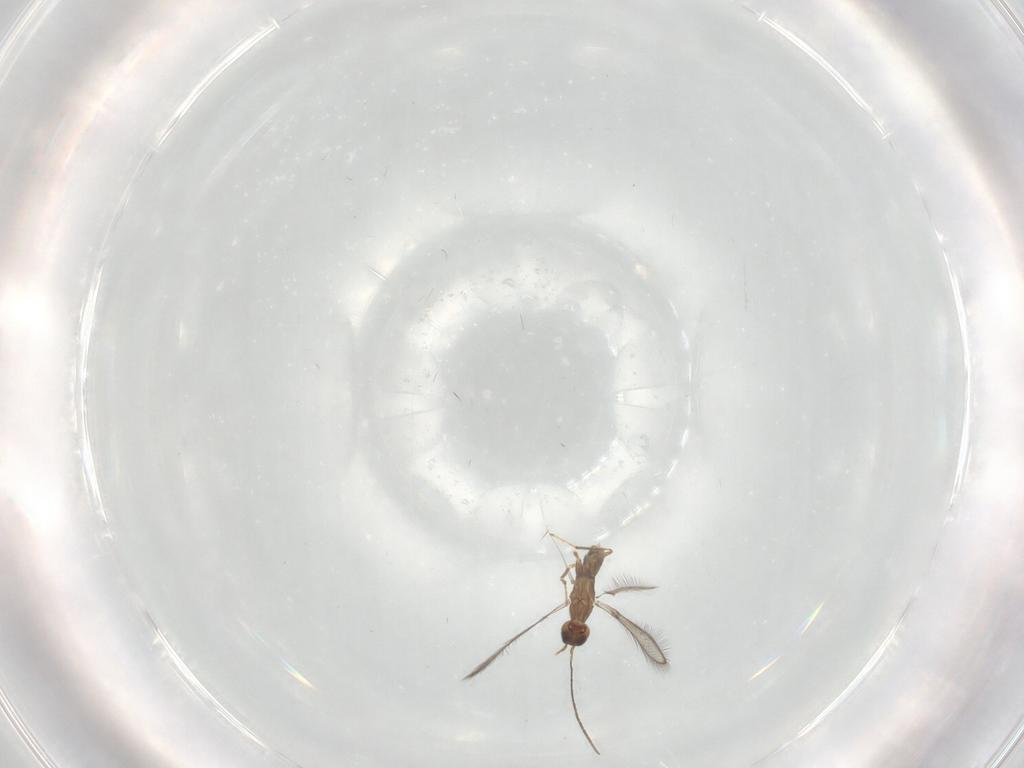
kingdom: Animalia
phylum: Arthropoda
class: Insecta
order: Hymenoptera
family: Mymaridae
